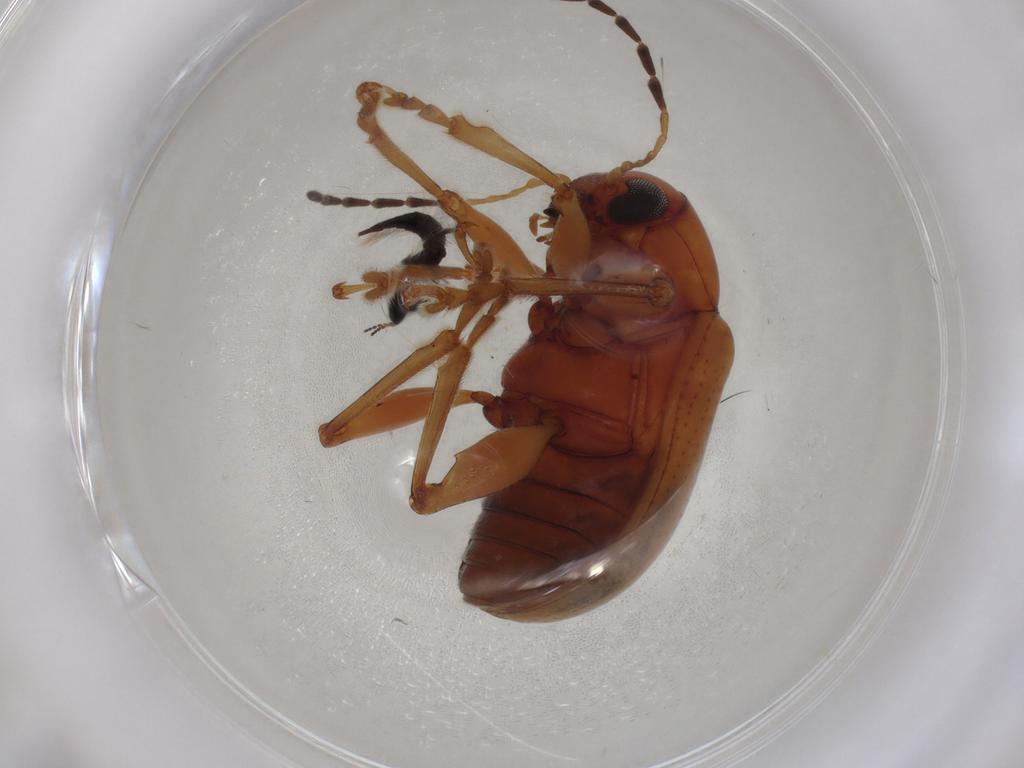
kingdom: Animalia
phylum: Arthropoda
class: Insecta
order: Coleoptera
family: Chrysomelidae
